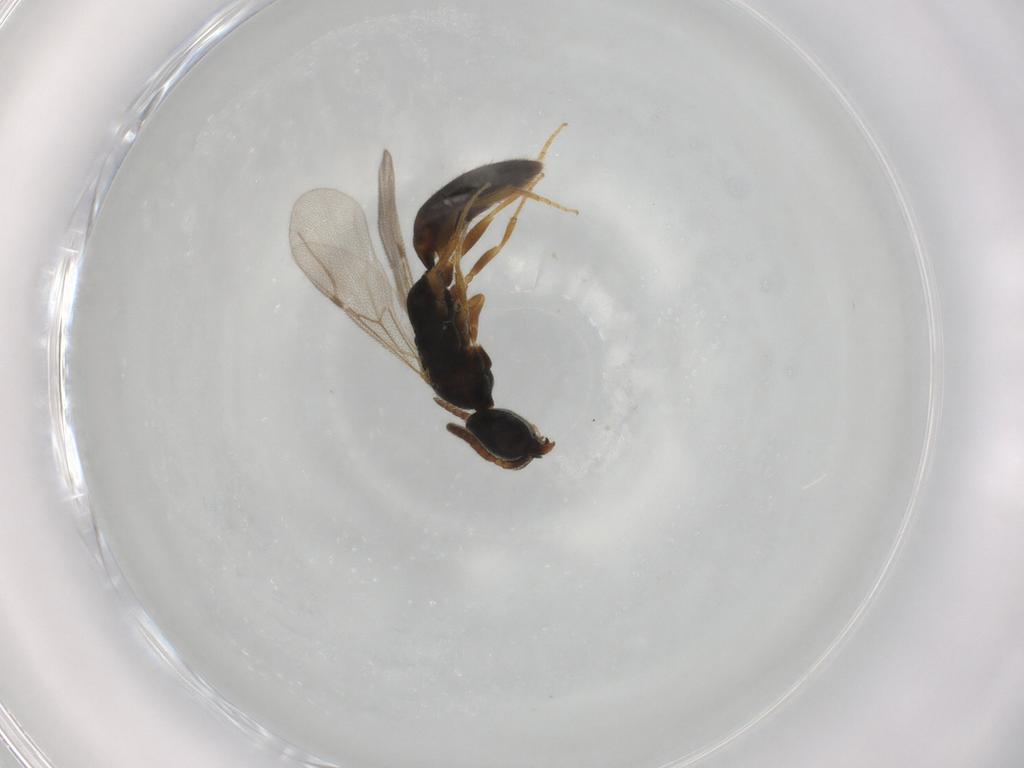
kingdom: Animalia
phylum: Arthropoda
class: Insecta
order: Hymenoptera
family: Bethylidae
